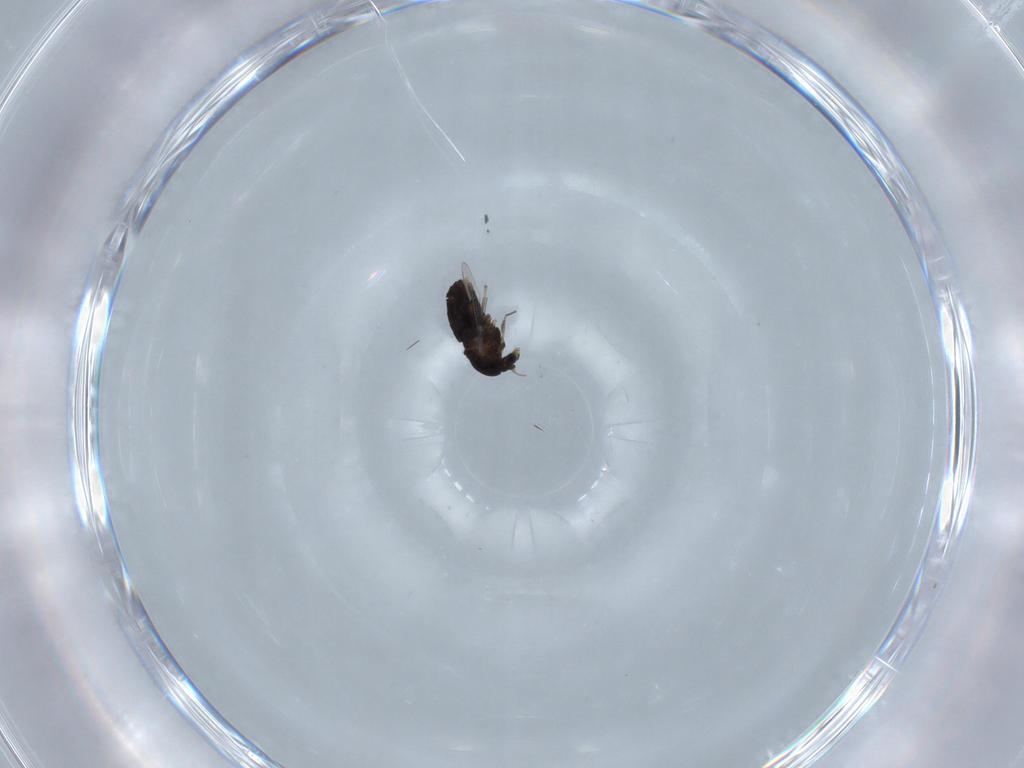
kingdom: Animalia
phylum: Arthropoda
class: Insecta
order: Diptera
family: Chironomidae
